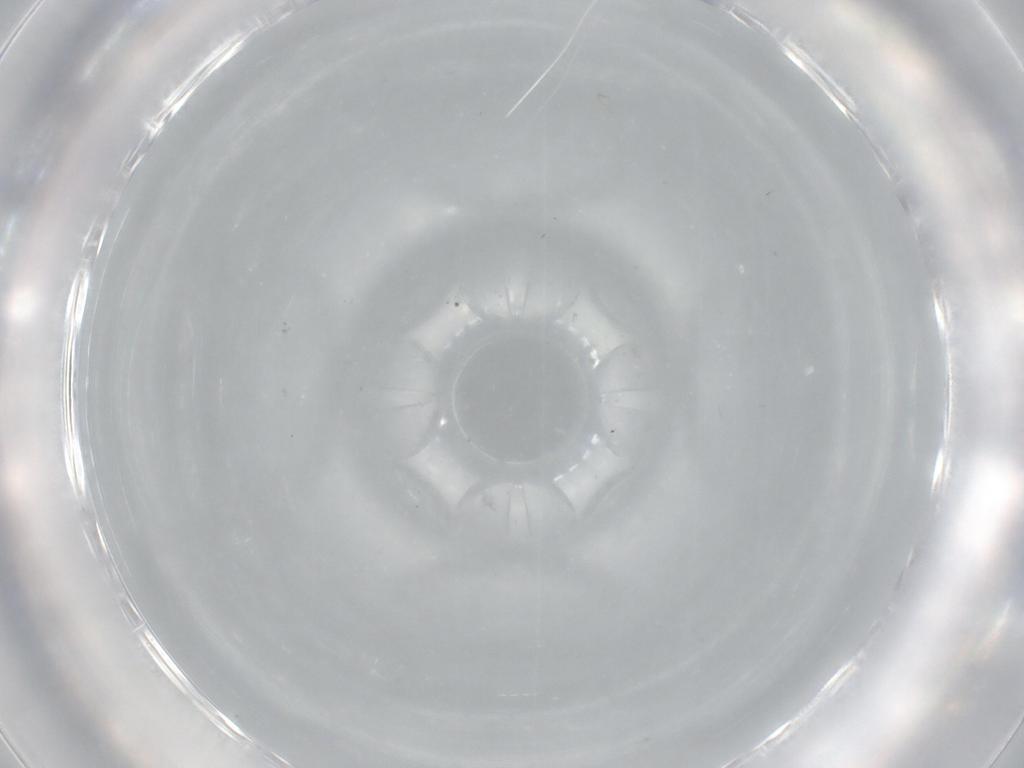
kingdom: Animalia
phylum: Arthropoda
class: Insecta
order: Diptera
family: Cecidomyiidae
